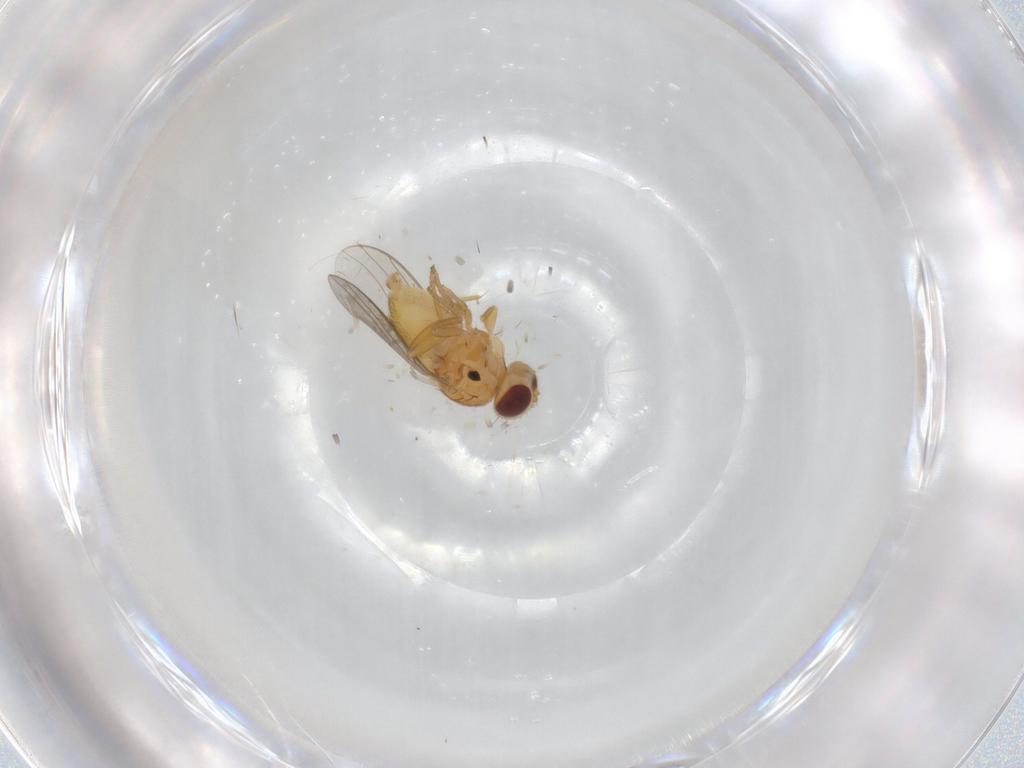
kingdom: Animalia
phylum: Arthropoda
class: Insecta
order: Diptera
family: Chloropidae
